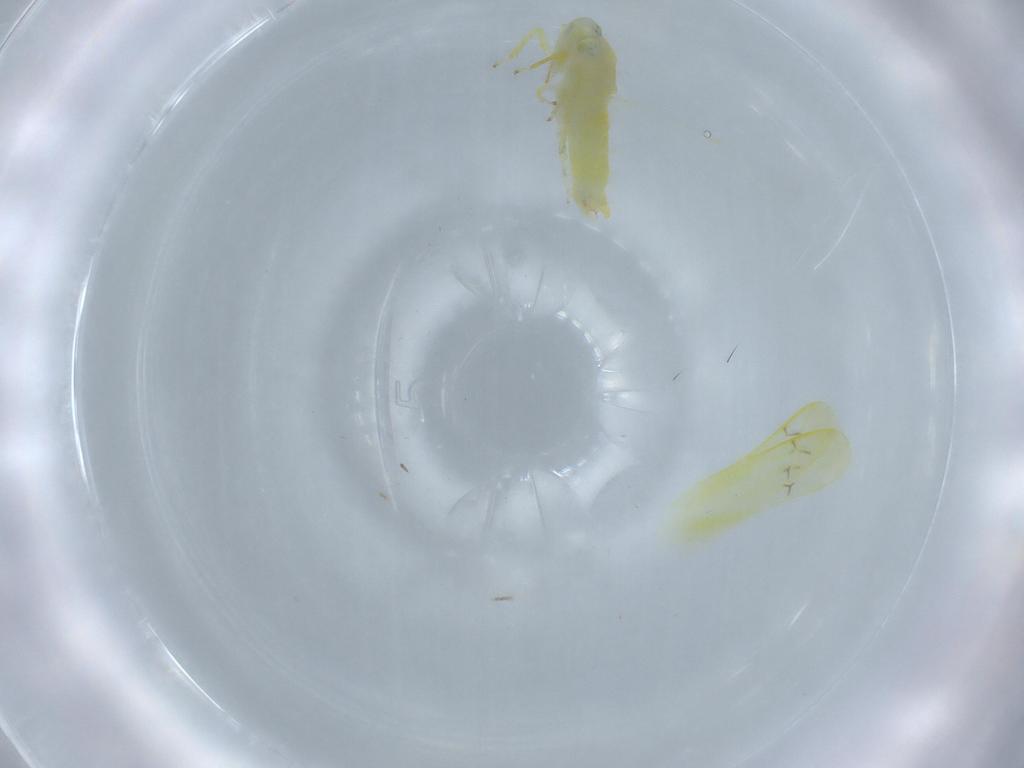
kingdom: Animalia
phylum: Arthropoda
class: Insecta
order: Hemiptera
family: Cicadellidae
